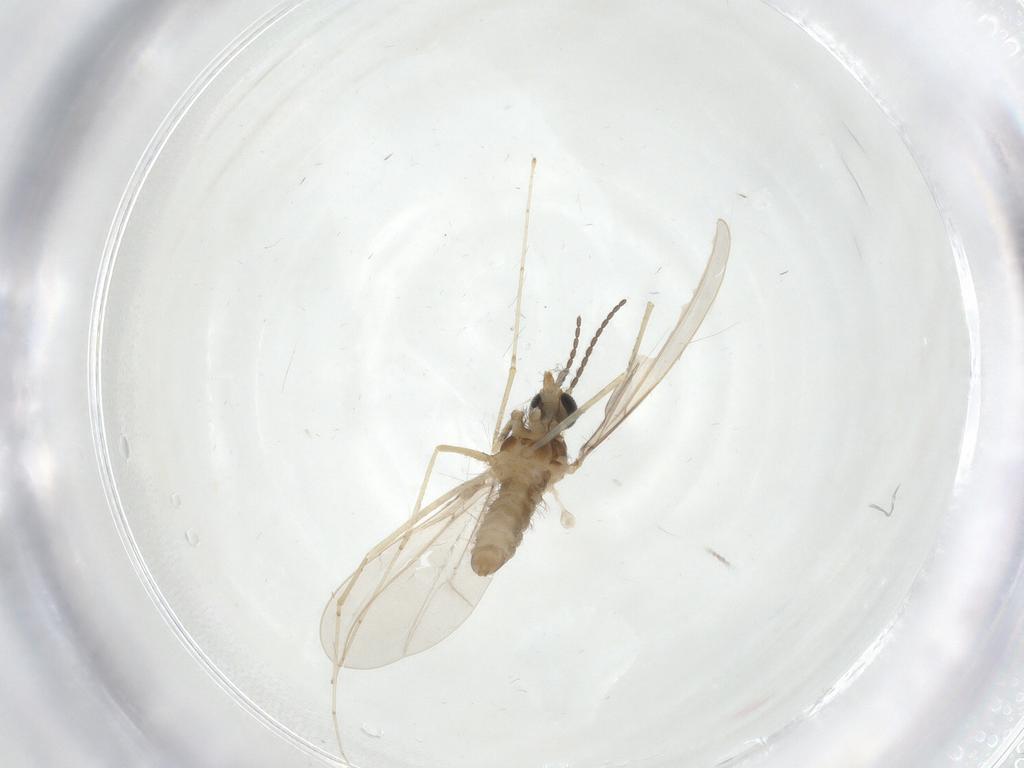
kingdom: Animalia
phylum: Arthropoda
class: Insecta
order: Diptera
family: Cecidomyiidae
